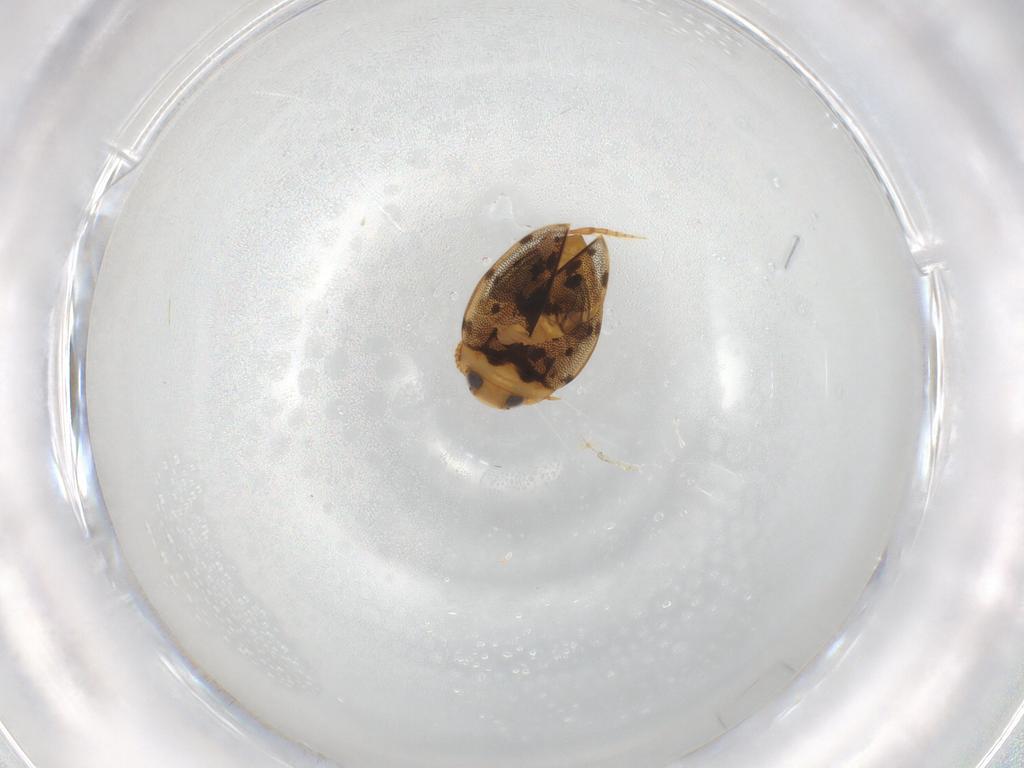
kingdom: Animalia
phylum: Arthropoda
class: Insecta
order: Coleoptera
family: Dytiscidae
